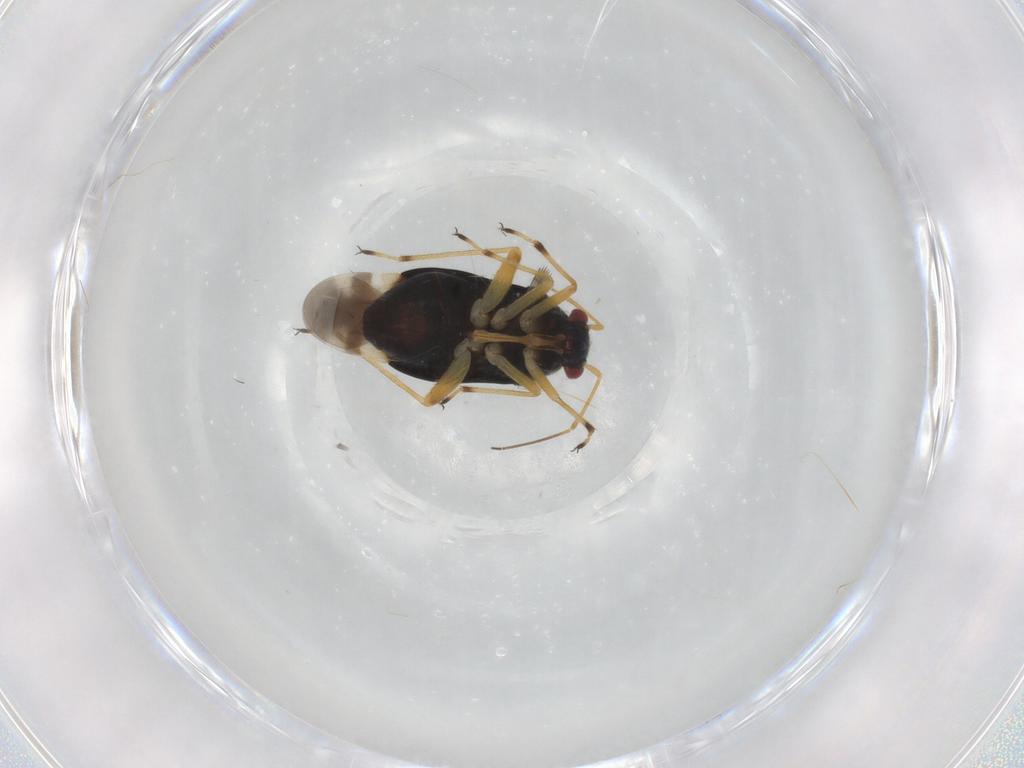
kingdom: Animalia
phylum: Arthropoda
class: Insecta
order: Hemiptera
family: Miridae
